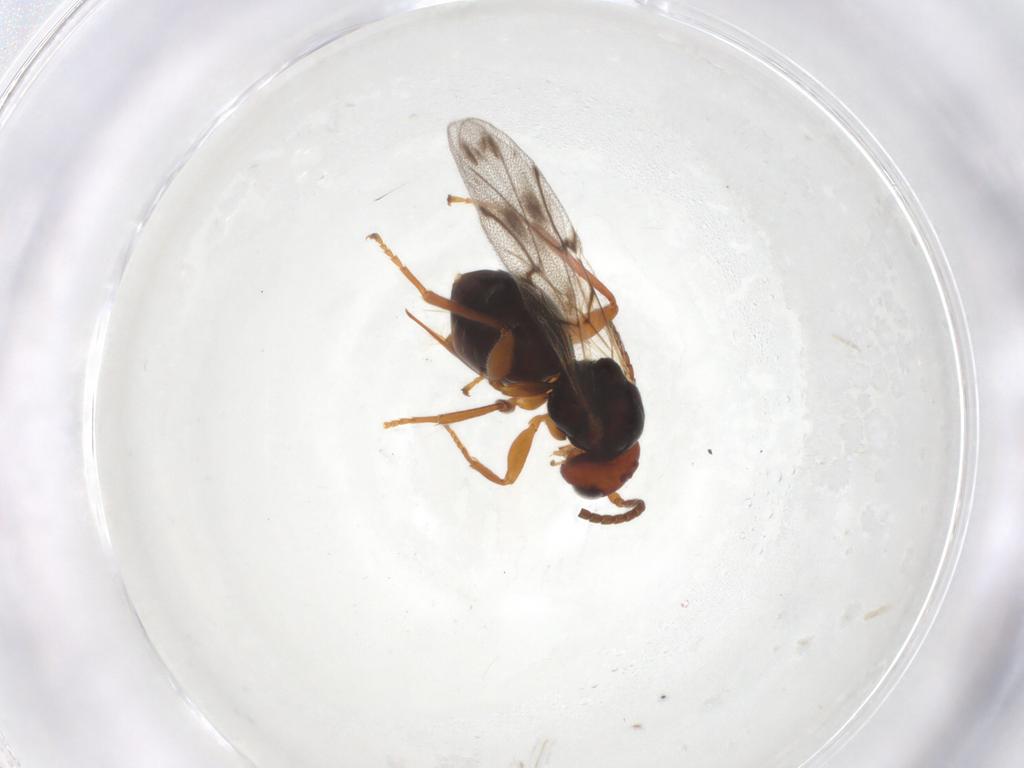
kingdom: Animalia
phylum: Arthropoda
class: Insecta
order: Hymenoptera
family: Cynipidae
